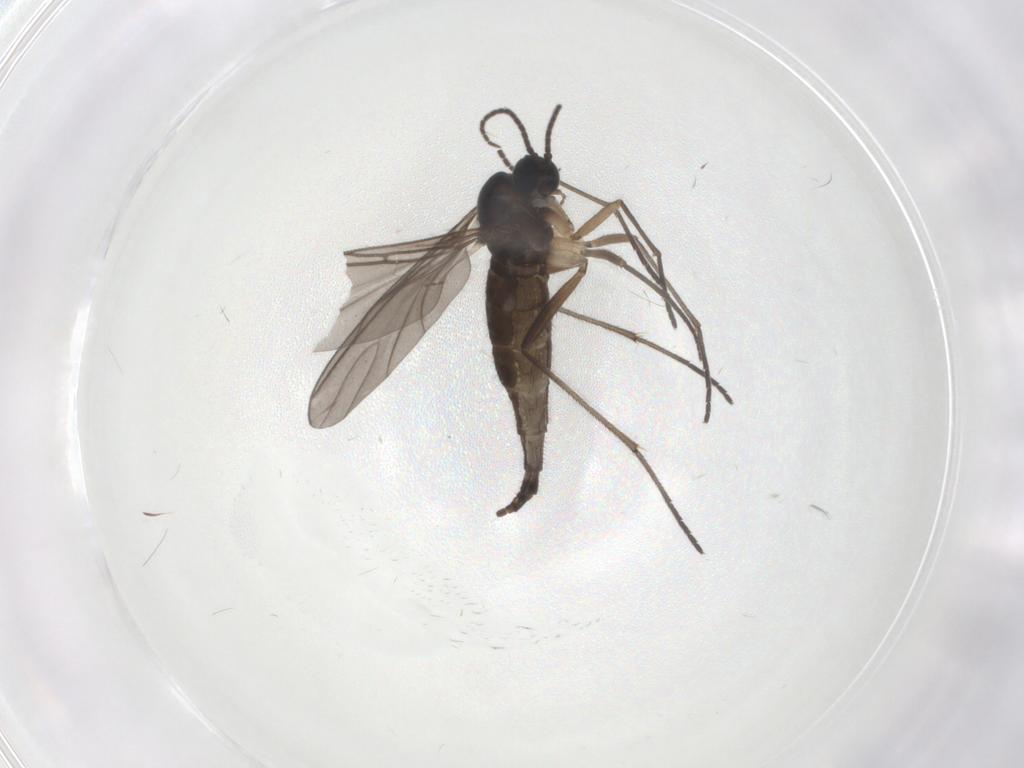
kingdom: Animalia
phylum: Arthropoda
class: Insecta
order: Diptera
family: Sciaridae
